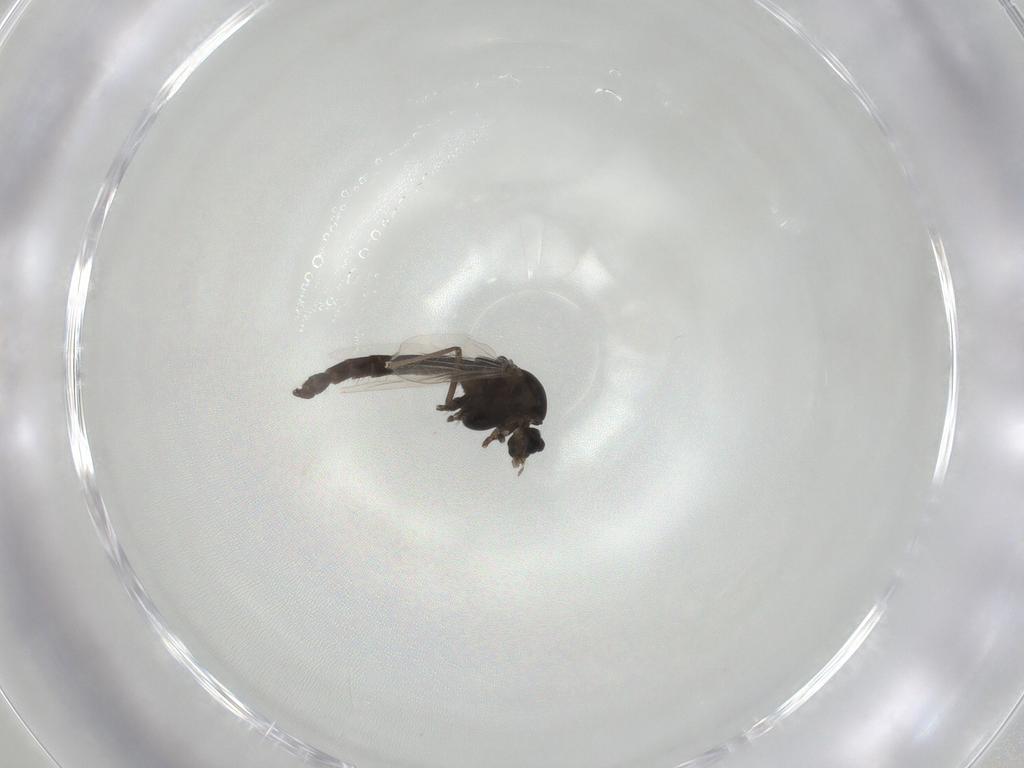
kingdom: Animalia
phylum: Arthropoda
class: Insecta
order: Diptera
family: Chironomidae
